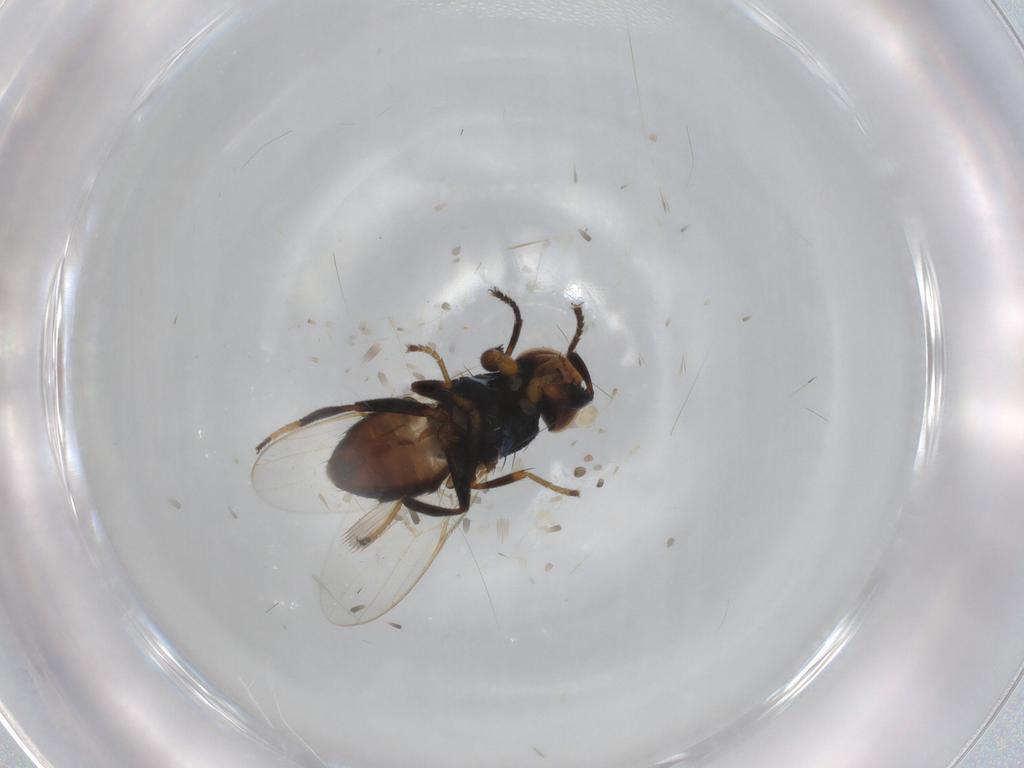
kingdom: Animalia
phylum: Arthropoda
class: Insecta
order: Diptera
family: Chloropidae
